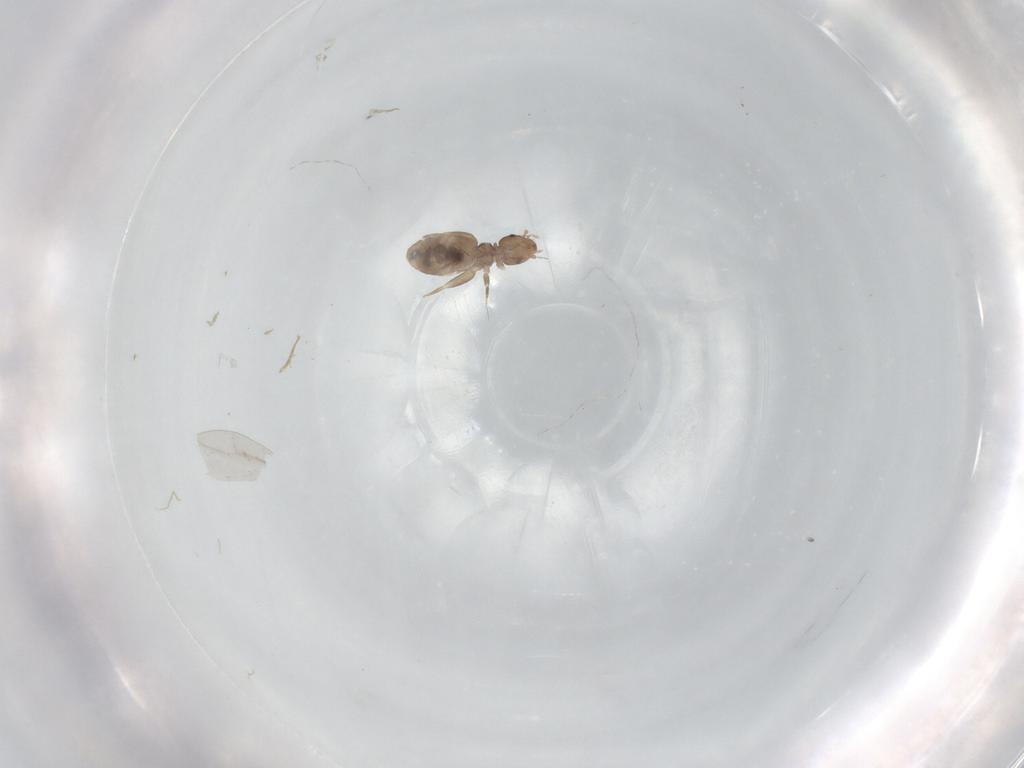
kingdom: Animalia
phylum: Arthropoda
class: Insecta
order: Psocodea
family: Liposcelididae
